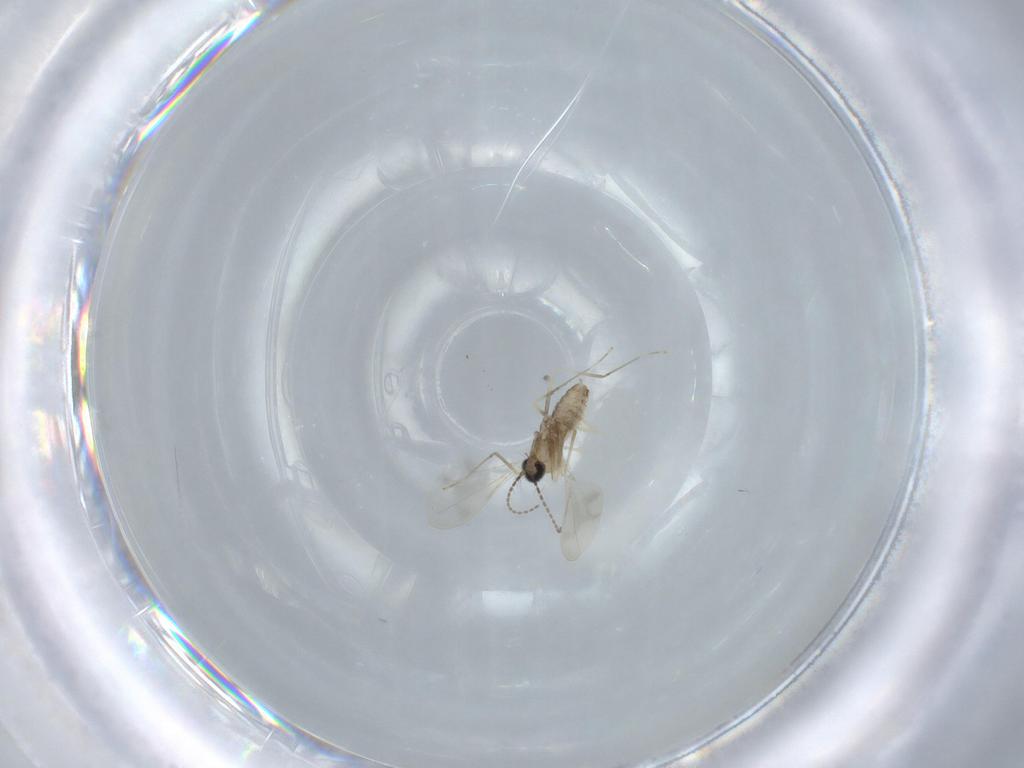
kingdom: Animalia
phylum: Arthropoda
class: Insecta
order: Diptera
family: Cecidomyiidae
